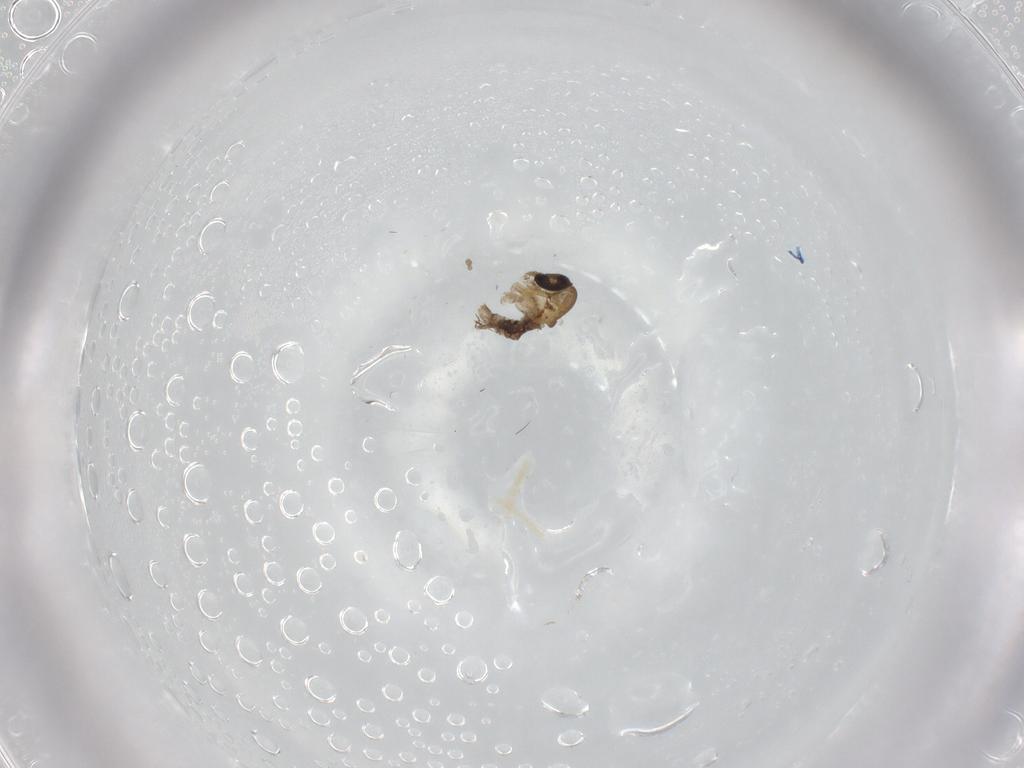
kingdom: Animalia
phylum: Arthropoda
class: Insecta
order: Diptera
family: Psychodidae
